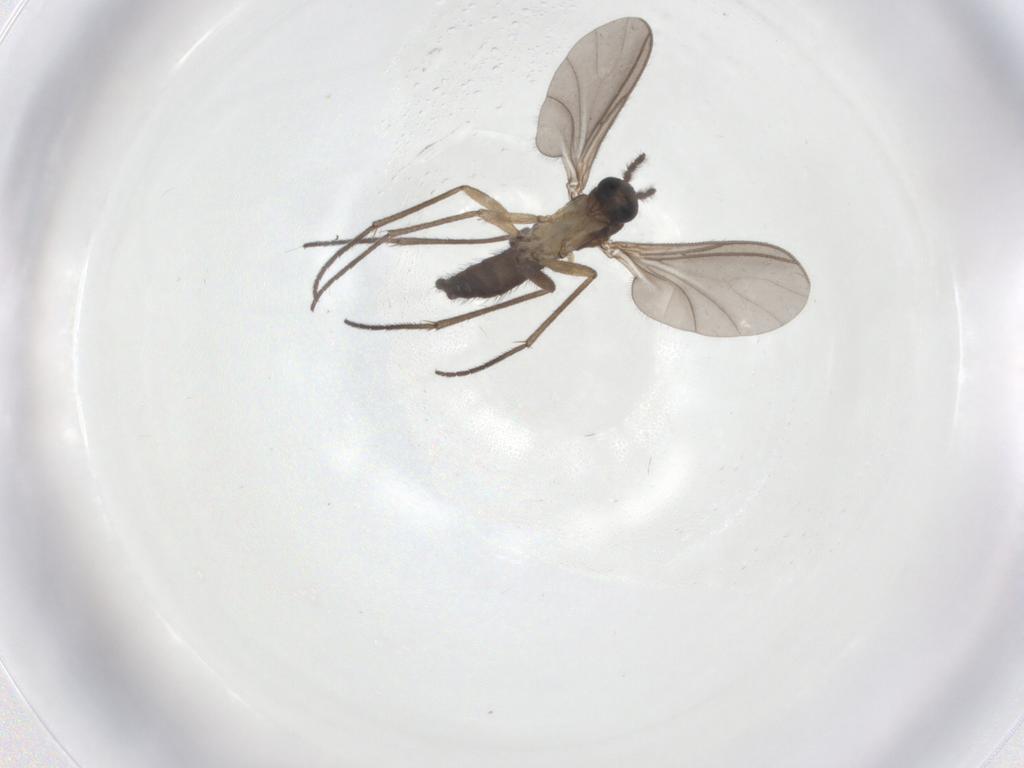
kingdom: Animalia
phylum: Arthropoda
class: Insecta
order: Diptera
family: Sciaridae
